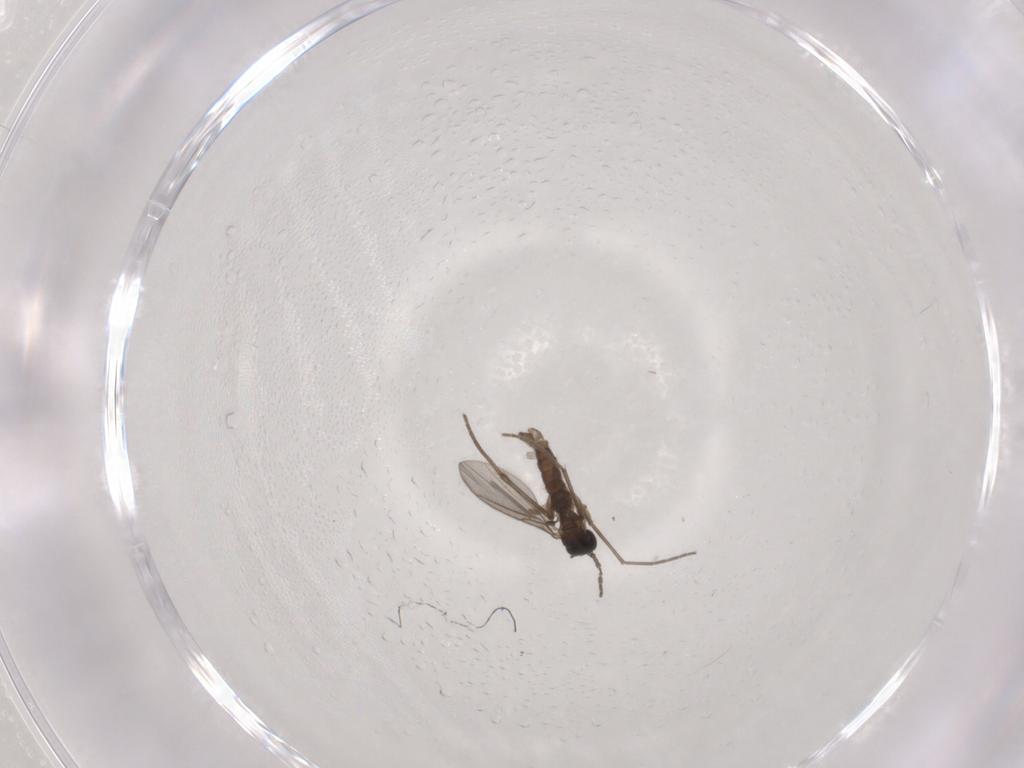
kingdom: Animalia
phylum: Arthropoda
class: Insecta
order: Diptera
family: Sciaridae
